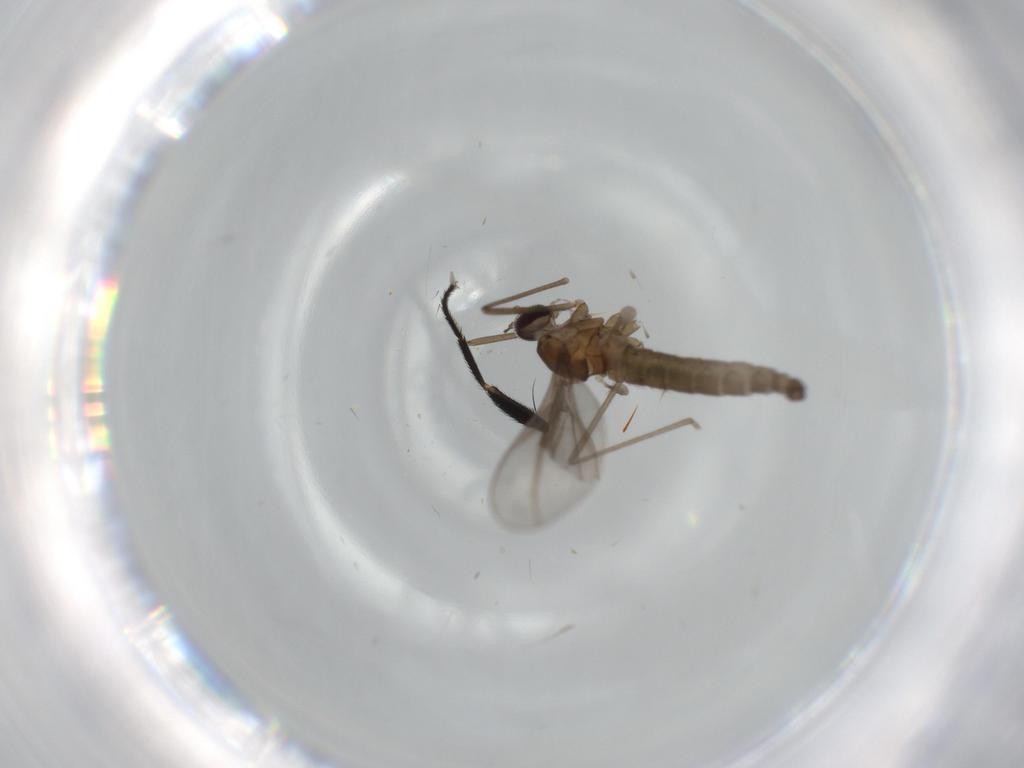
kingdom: Animalia
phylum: Arthropoda
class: Insecta
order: Diptera
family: Cecidomyiidae
